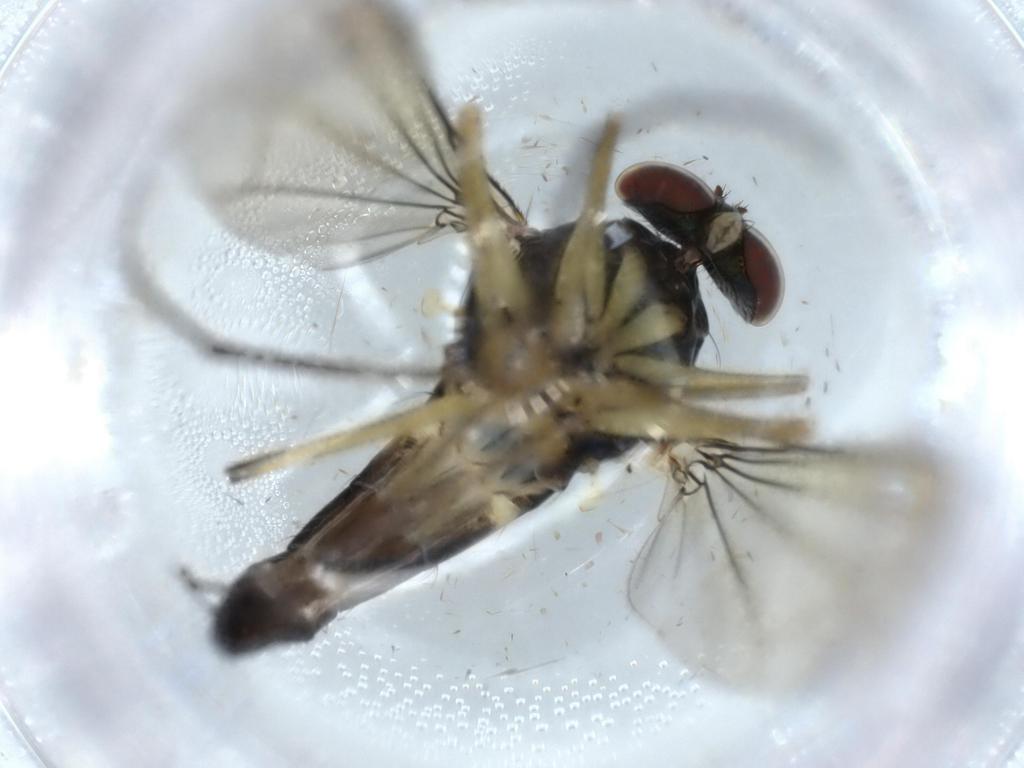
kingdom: Animalia
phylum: Arthropoda
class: Insecta
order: Diptera
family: Dolichopodidae
